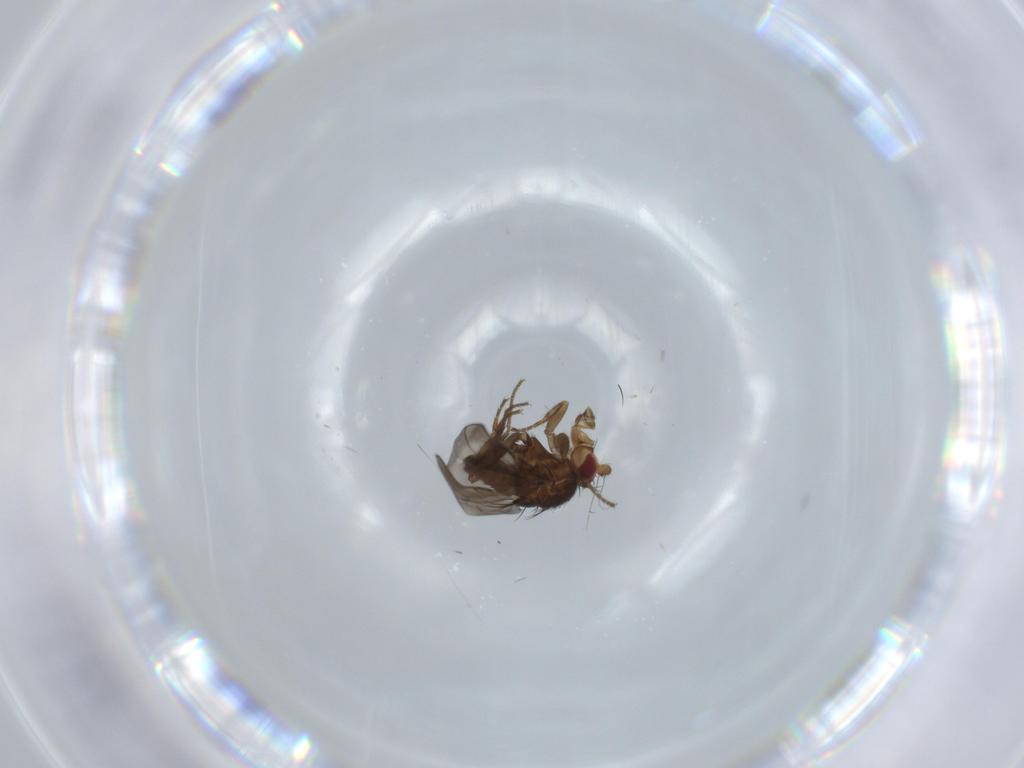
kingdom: Animalia
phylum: Arthropoda
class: Insecta
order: Diptera
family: Sphaeroceridae
